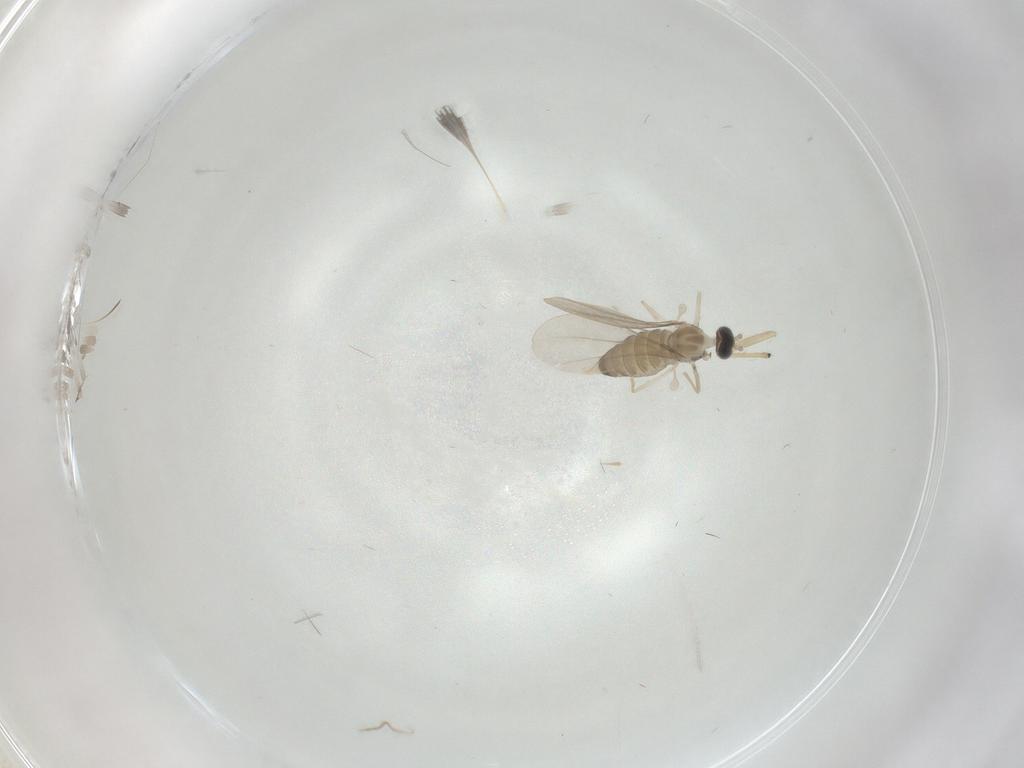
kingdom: Animalia
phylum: Arthropoda
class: Insecta
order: Diptera
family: Cecidomyiidae
